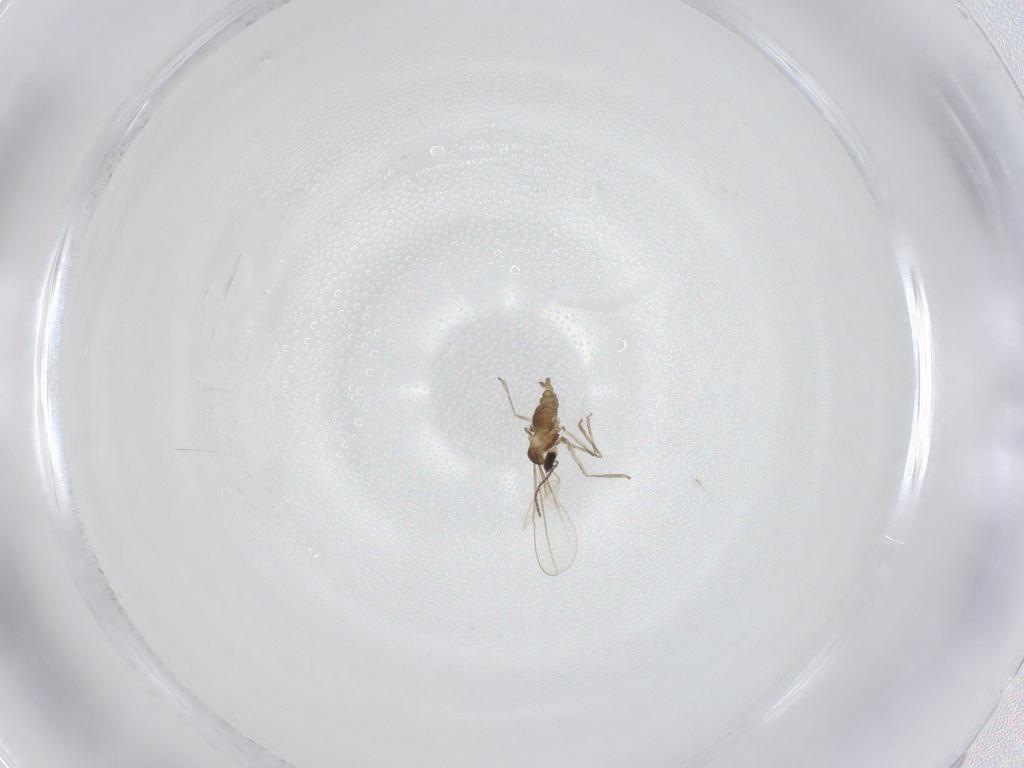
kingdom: Animalia
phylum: Arthropoda
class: Insecta
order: Diptera
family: Cecidomyiidae
